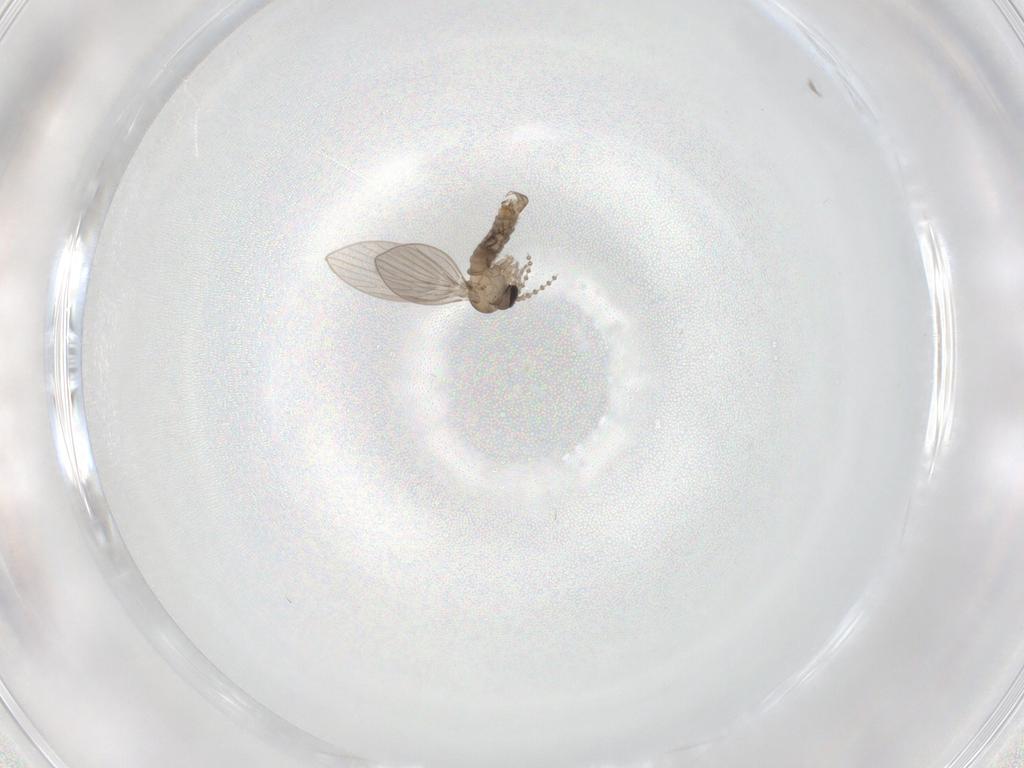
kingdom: Animalia
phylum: Arthropoda
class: Insecta
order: Diptera
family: Psychodidae
